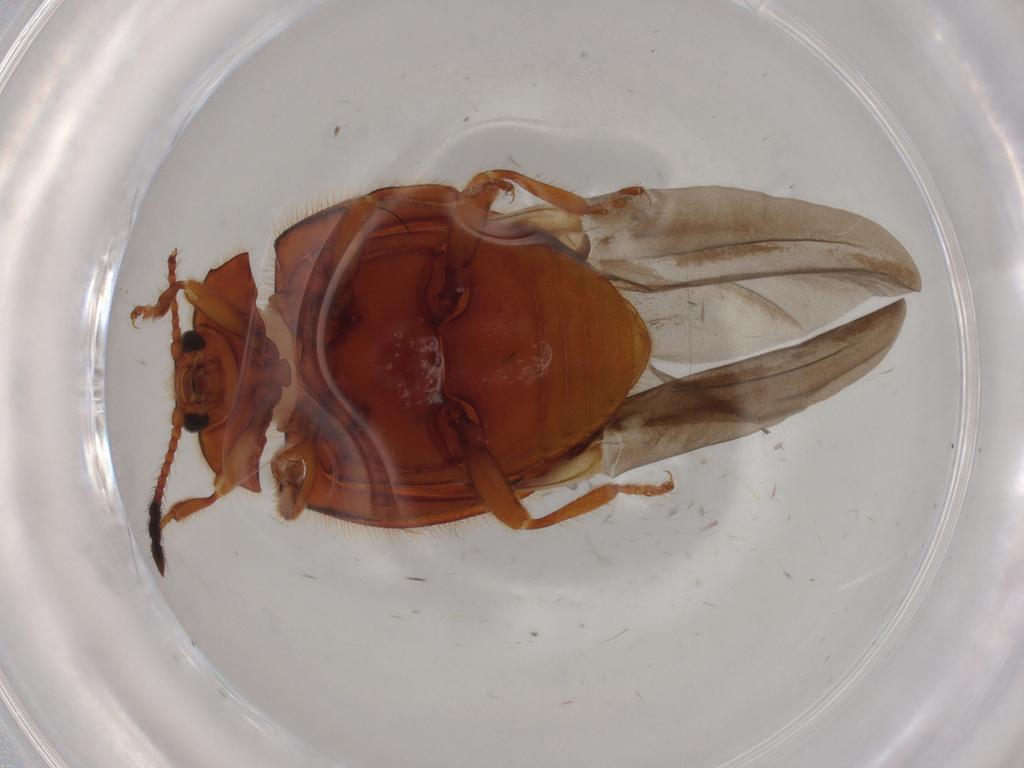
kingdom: Animalia
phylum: Arthropoda
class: Insecta
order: Coleoptera
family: Endomychidae
